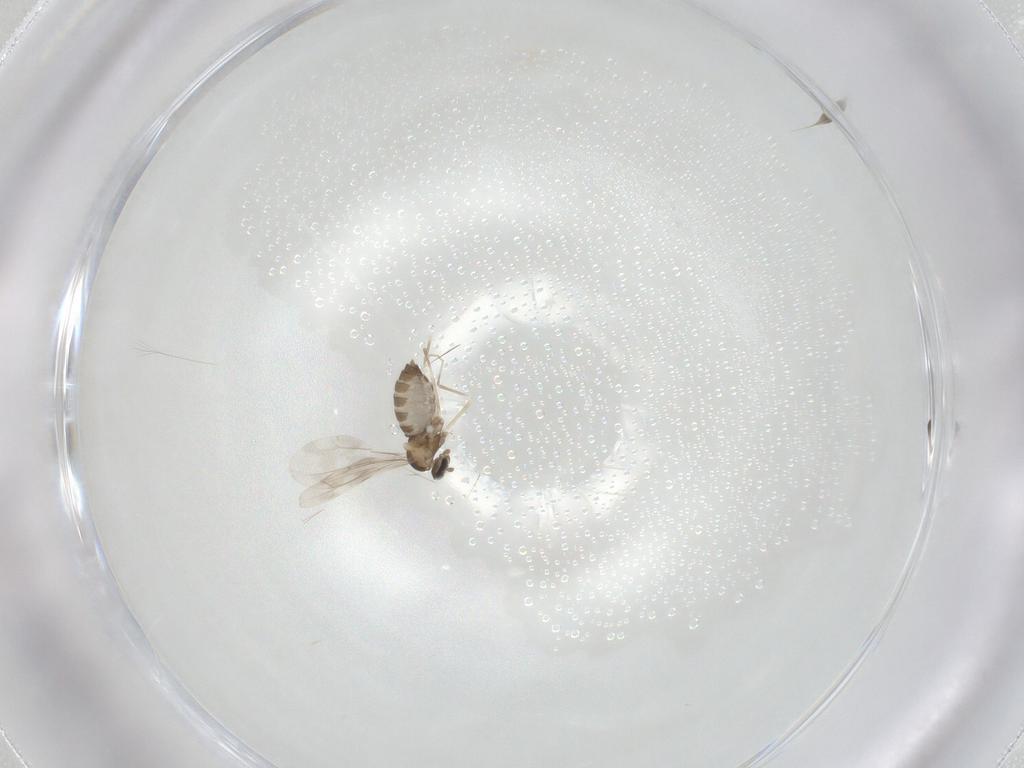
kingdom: Animalia
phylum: Arthropoda
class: Insecta
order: Diptera
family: Cecidomyiidae
